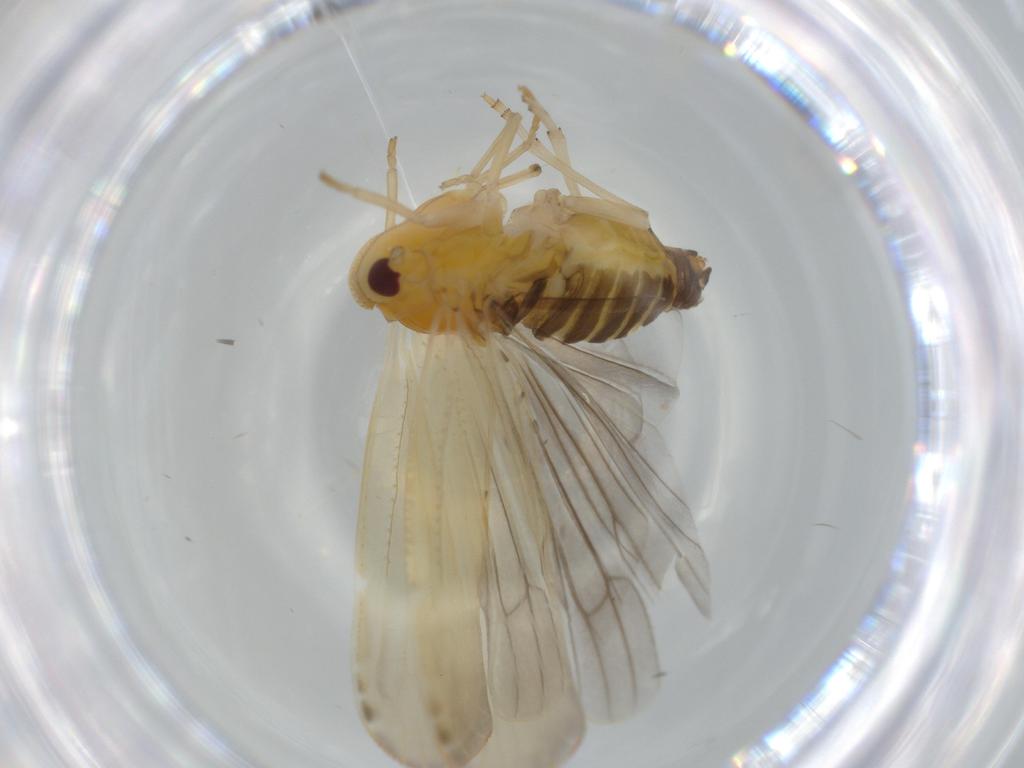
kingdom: Animalia
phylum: Arthropoda
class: Insecta
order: Hemiptera
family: Derbidae
